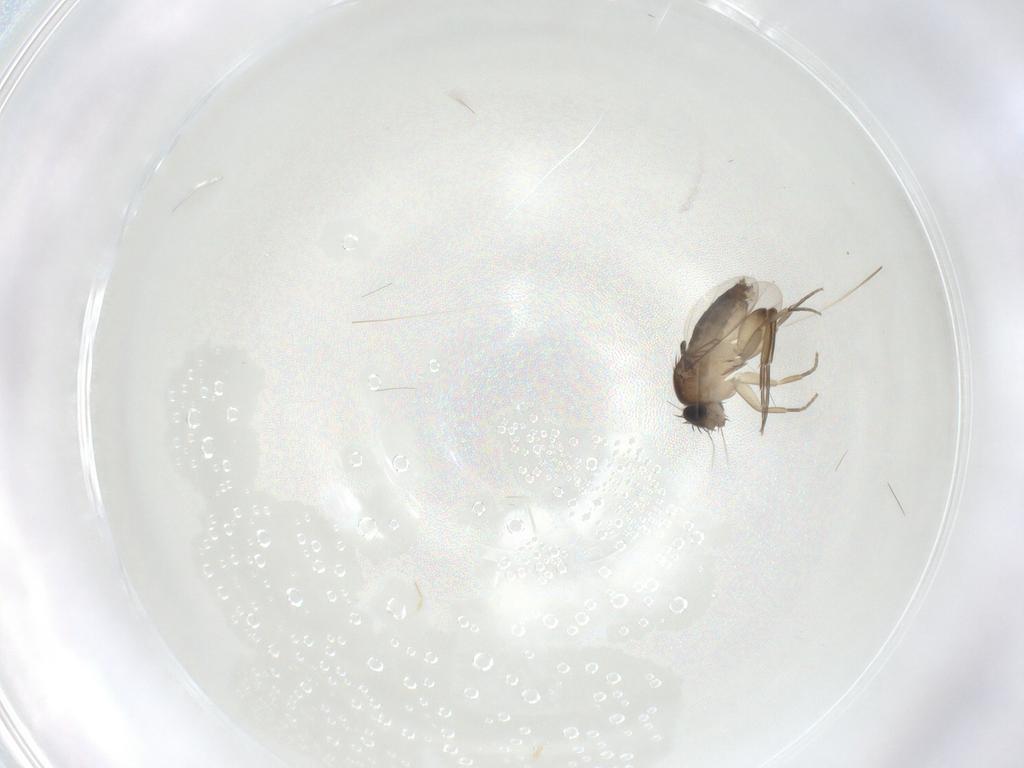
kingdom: Animalia
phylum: Arthropoda
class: Insecta
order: Diptera
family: Phoridae
